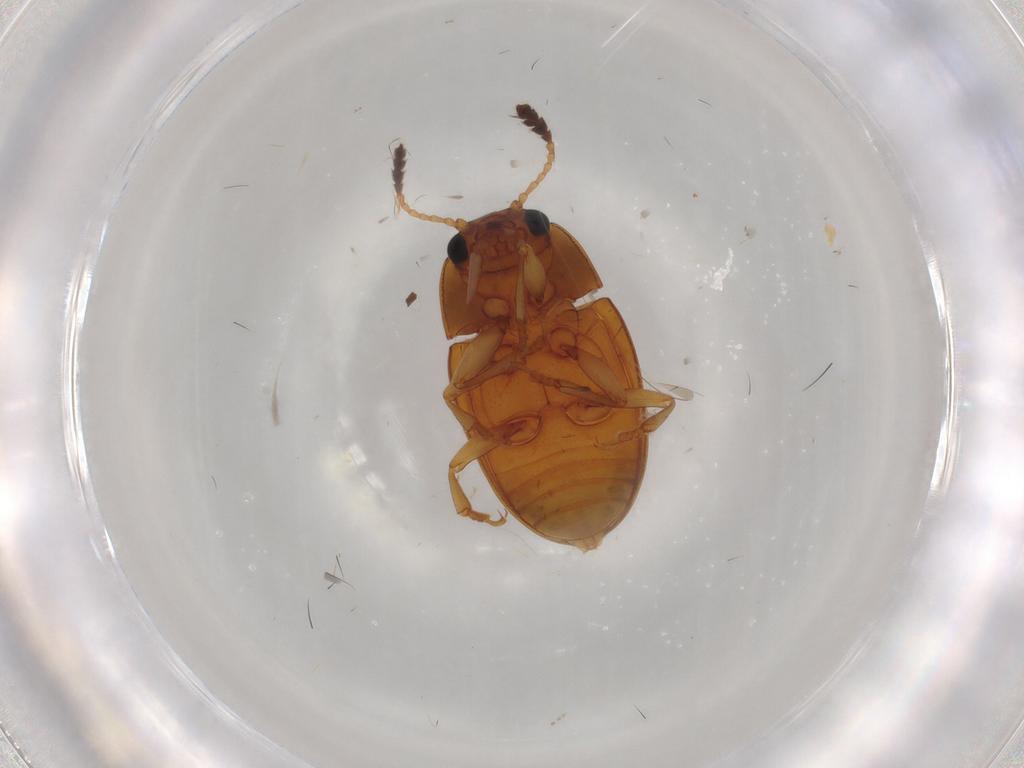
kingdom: Animalia
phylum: Arthropoda
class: Insecta
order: Coleoptera
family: Erotylidae
